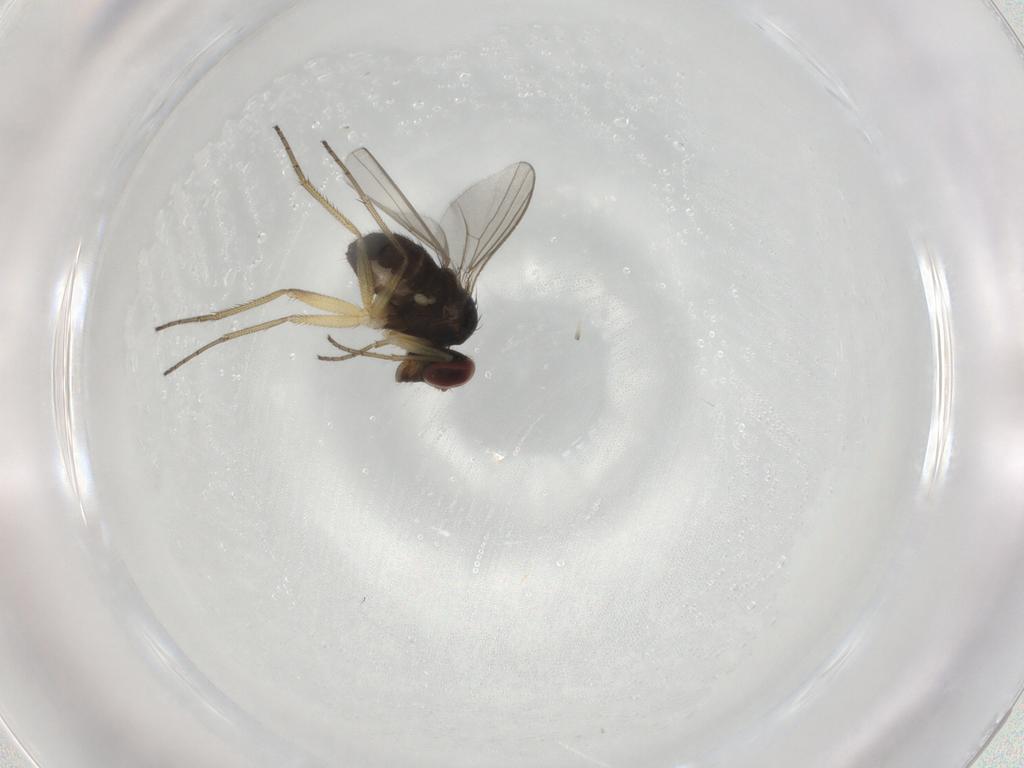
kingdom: Animalia
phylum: Arthropoda
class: Insecta
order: Diptera
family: Dolichopodidae
